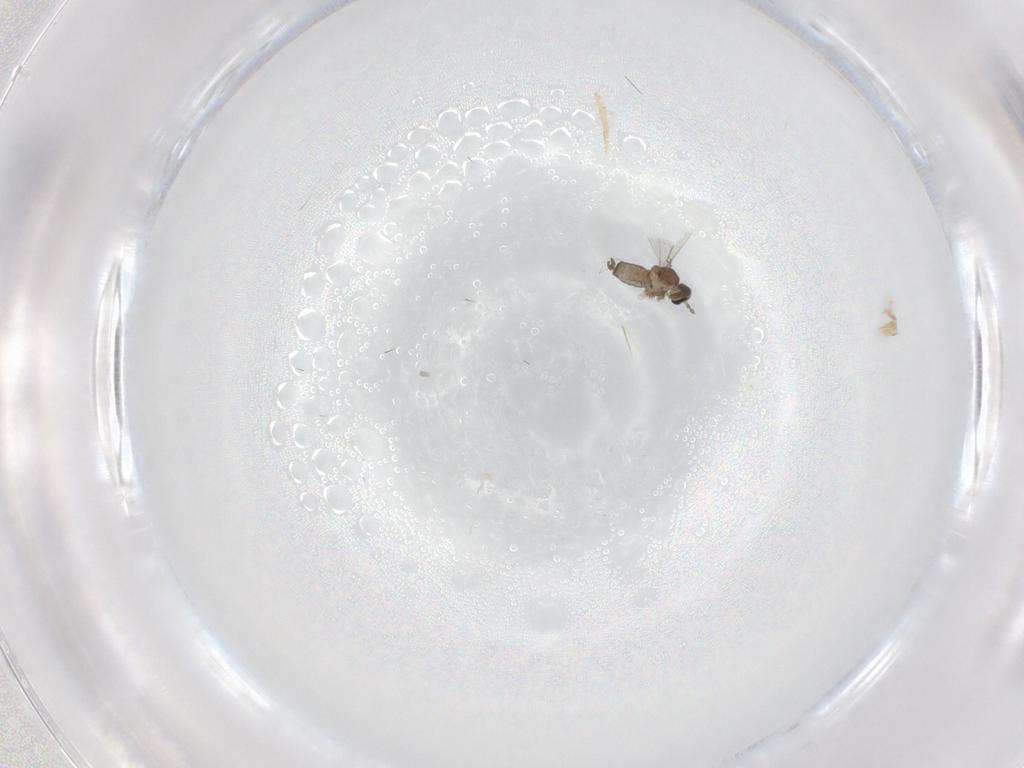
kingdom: Animalia
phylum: Arthropoda
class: Insecta
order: Diptera
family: Cecidomyiidae
